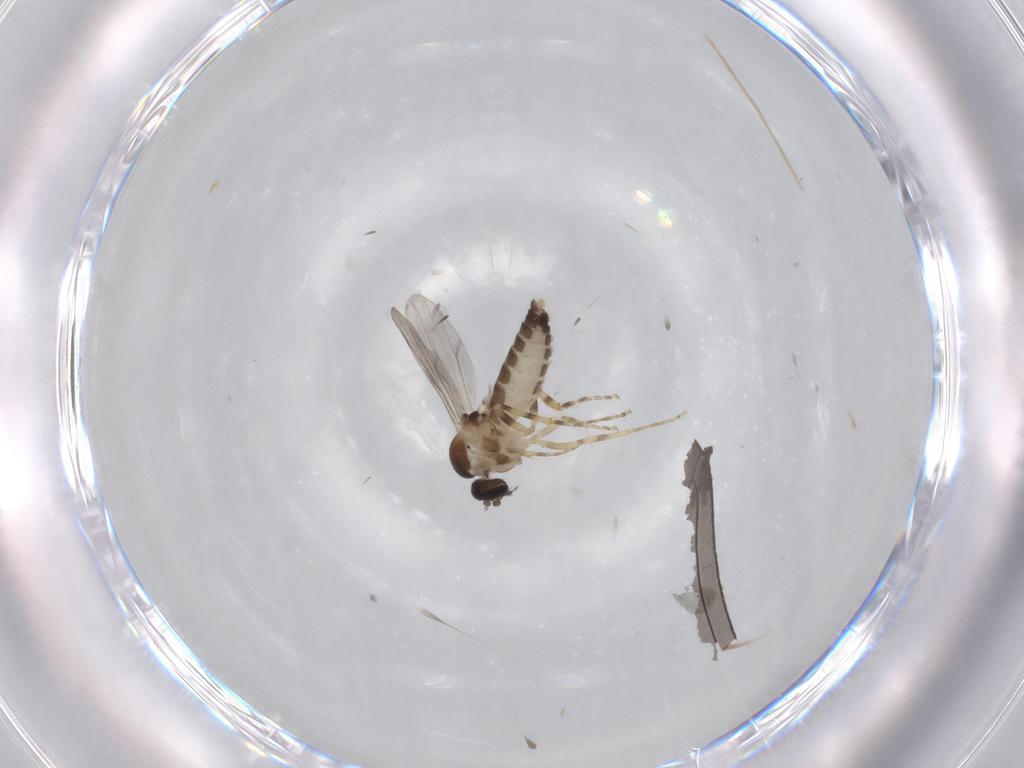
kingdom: Animalia
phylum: Arthropoda
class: Insecta
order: Diptera
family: Ceratopogonidae
